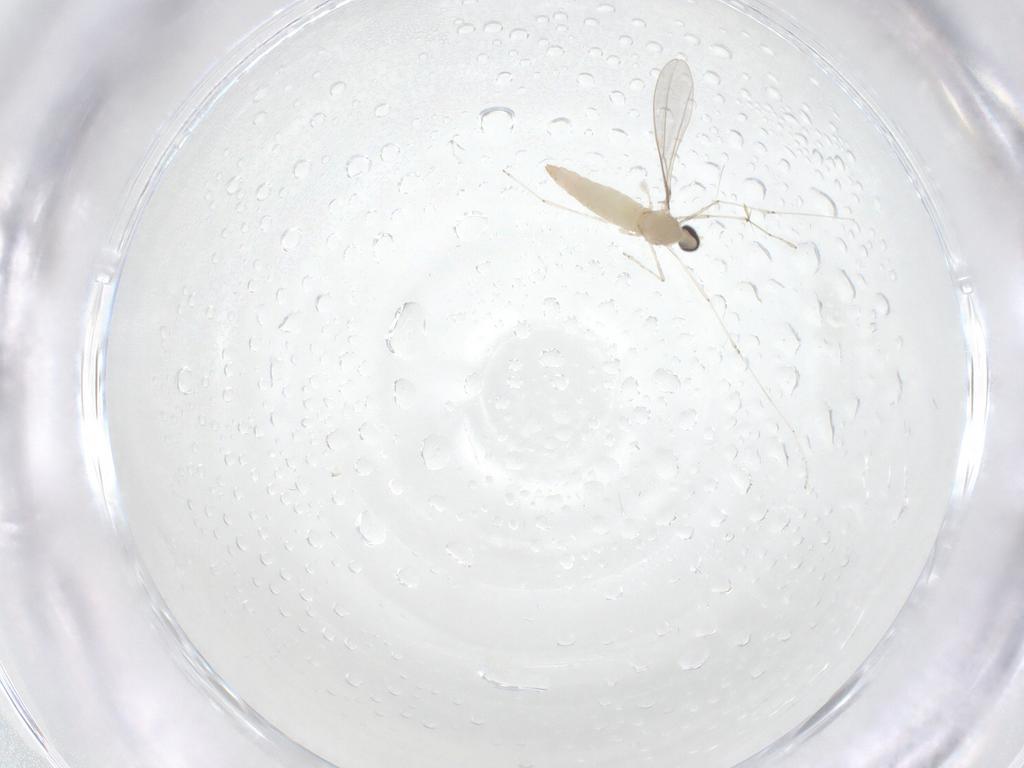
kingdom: Animalia
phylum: Arthropoda
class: Insecta
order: Diptera
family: Cecidomyiidae
